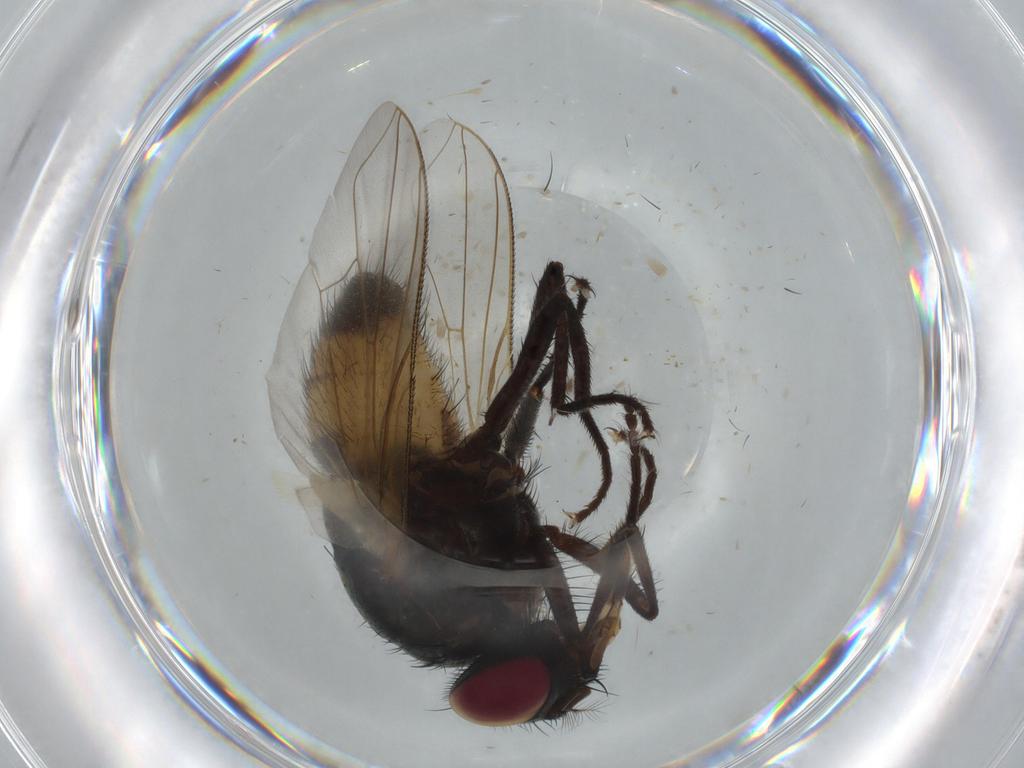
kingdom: Animalia
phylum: Arthropoda
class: Insecta
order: Diptera
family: Muscidae
